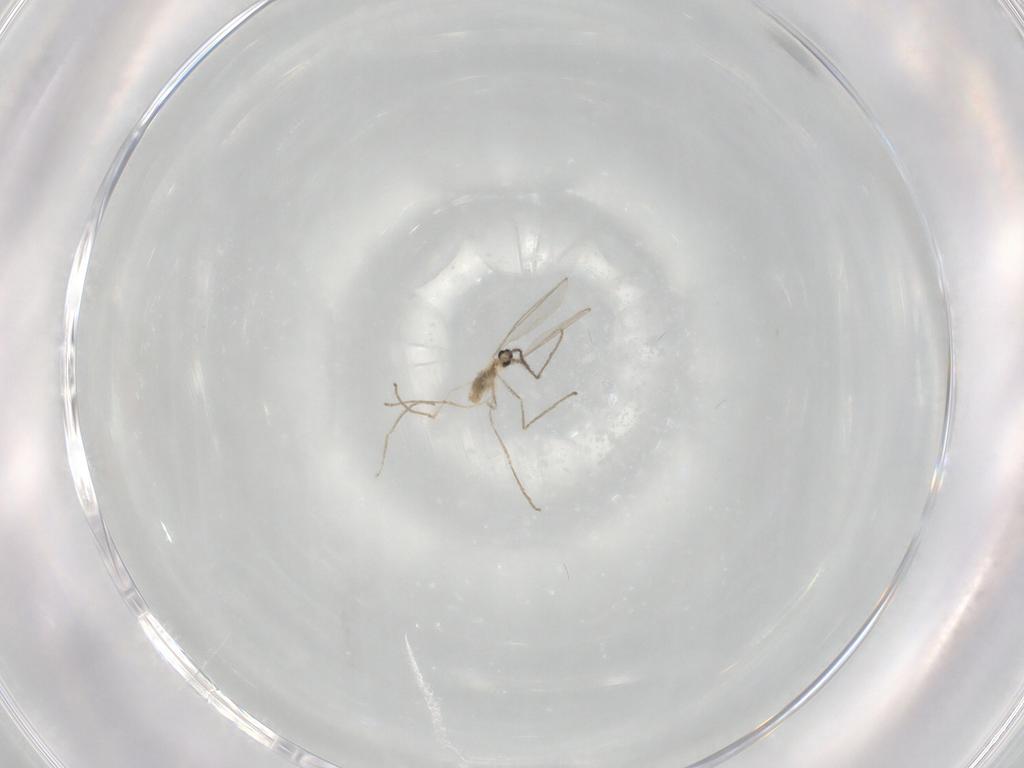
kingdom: Animalia
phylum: Arthropoda
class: Insecta
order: Diptera
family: Cecidomyiidae
